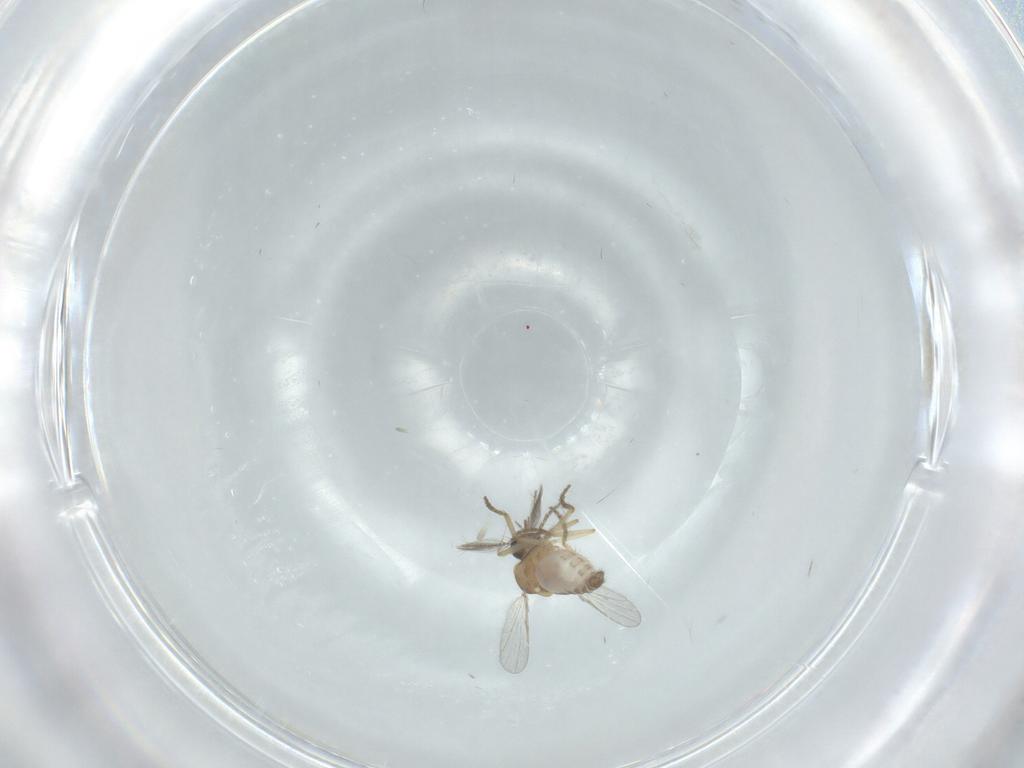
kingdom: Animalia
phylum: Arthropoda
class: Insecta
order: Diptera
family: Ceratopogonidae
